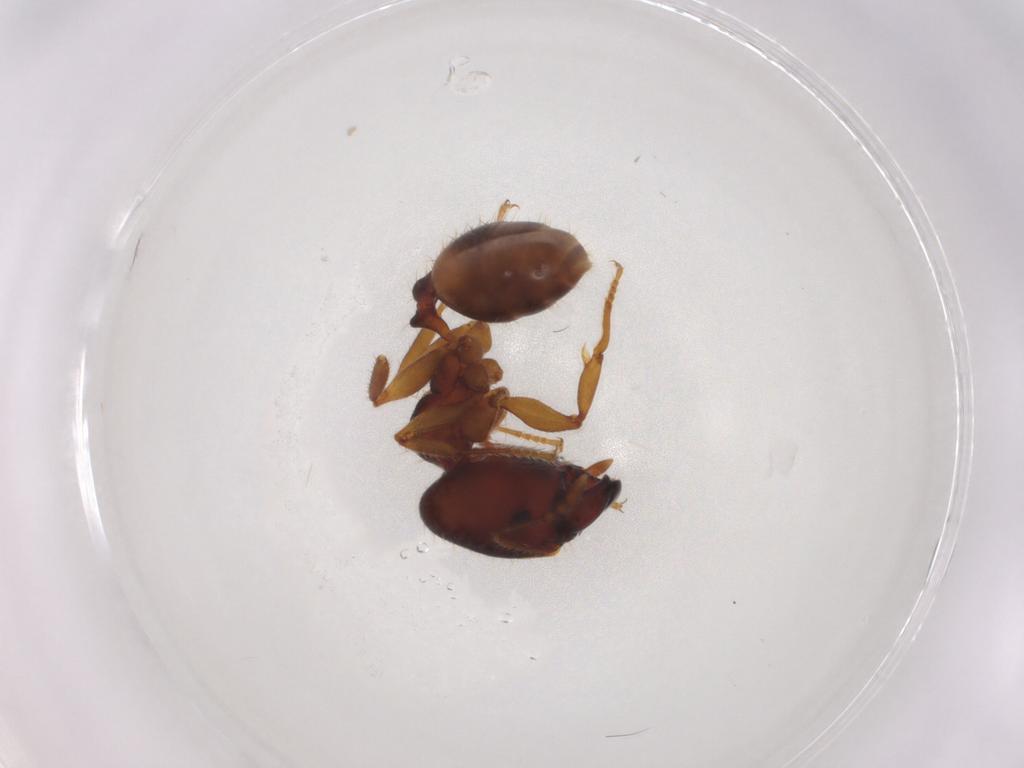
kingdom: Animalia
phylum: Arthropoda
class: Insecta
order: Hymenoptera
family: Formicidae
